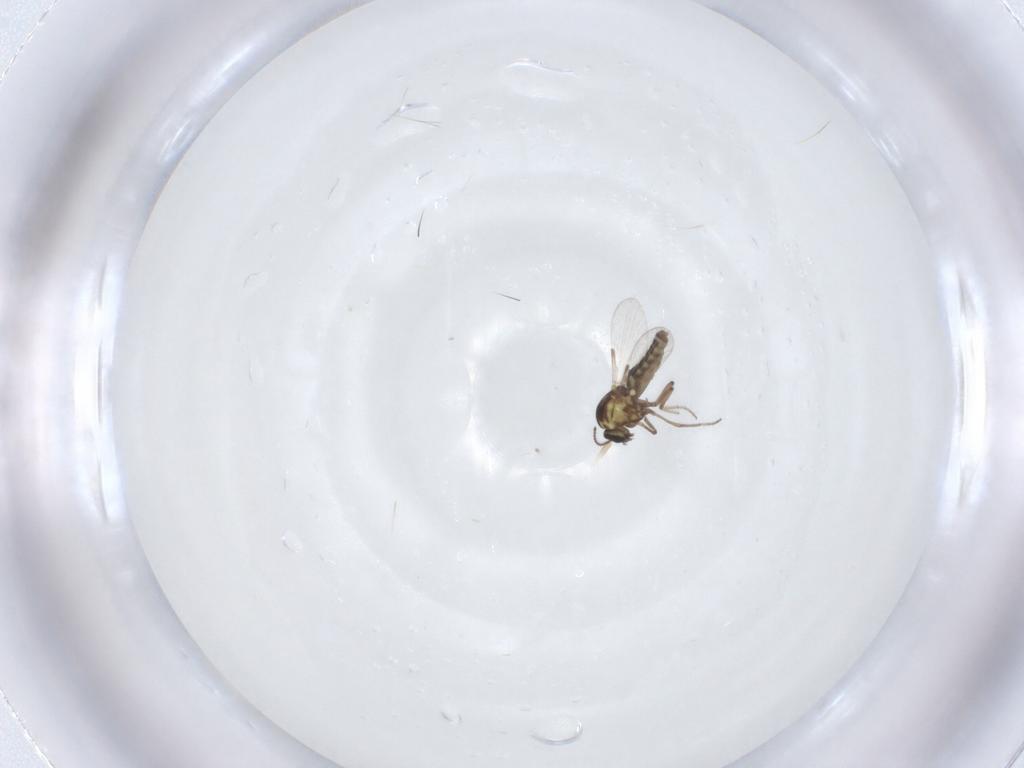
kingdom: Animalia
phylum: Arthropoda
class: Insecta
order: Diptera
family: Ceratopogonidae
